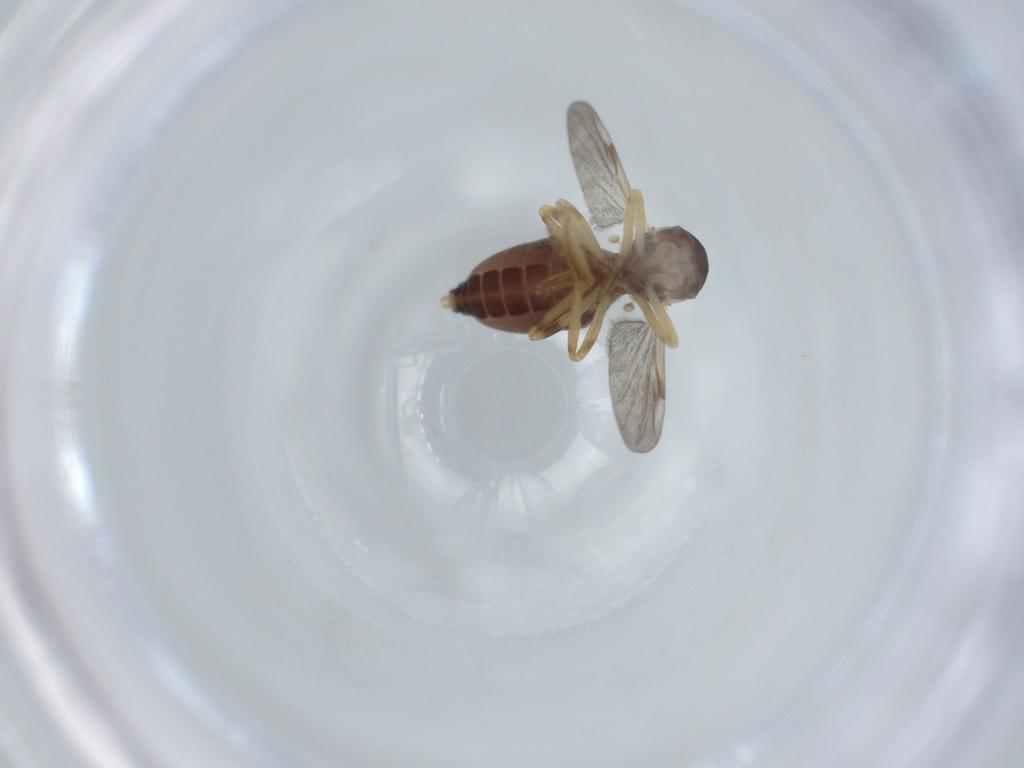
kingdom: Animalia
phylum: Arthropoda
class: Insecta
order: Diptera
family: Ceratopogonidae
